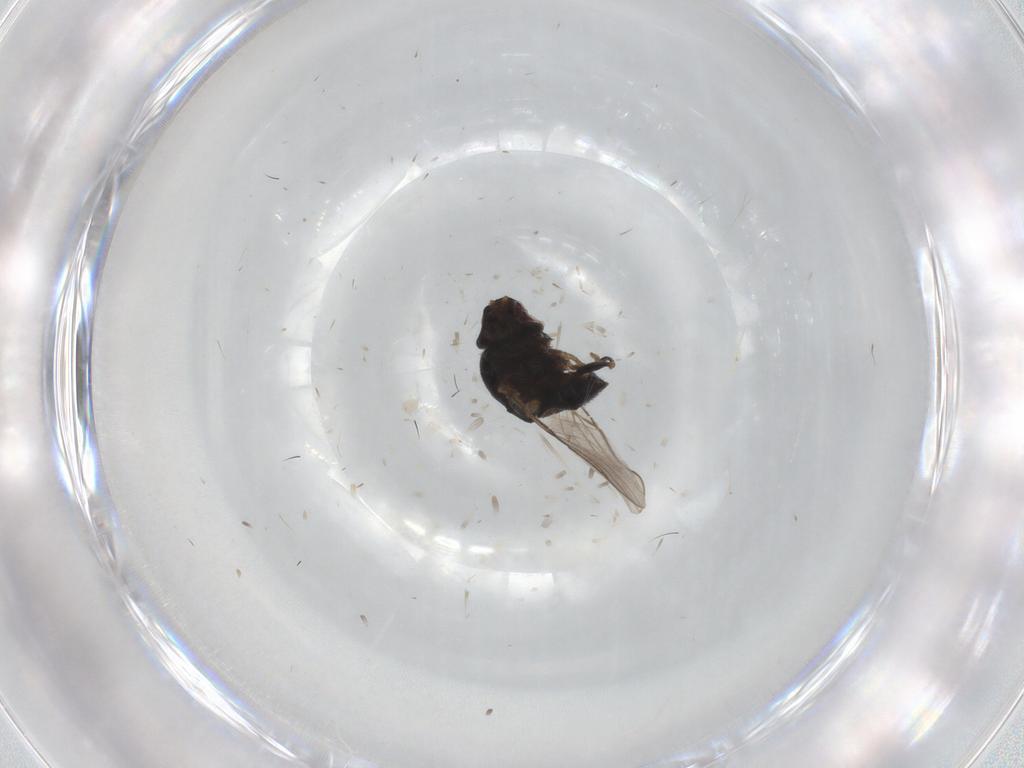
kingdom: Animalia
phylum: Arthropoda
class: Insecta
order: Diptera
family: Chloropidae
